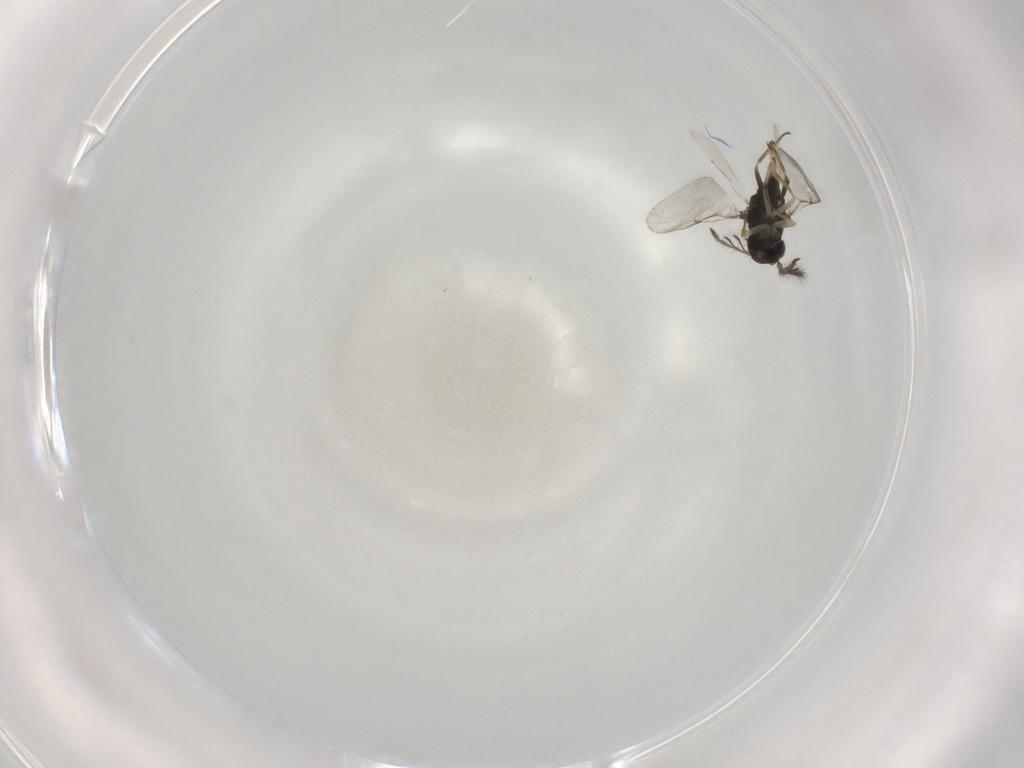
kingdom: Animalia
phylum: Arthropoda
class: Insecta
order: Hymenoptera
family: Encyrtidae
